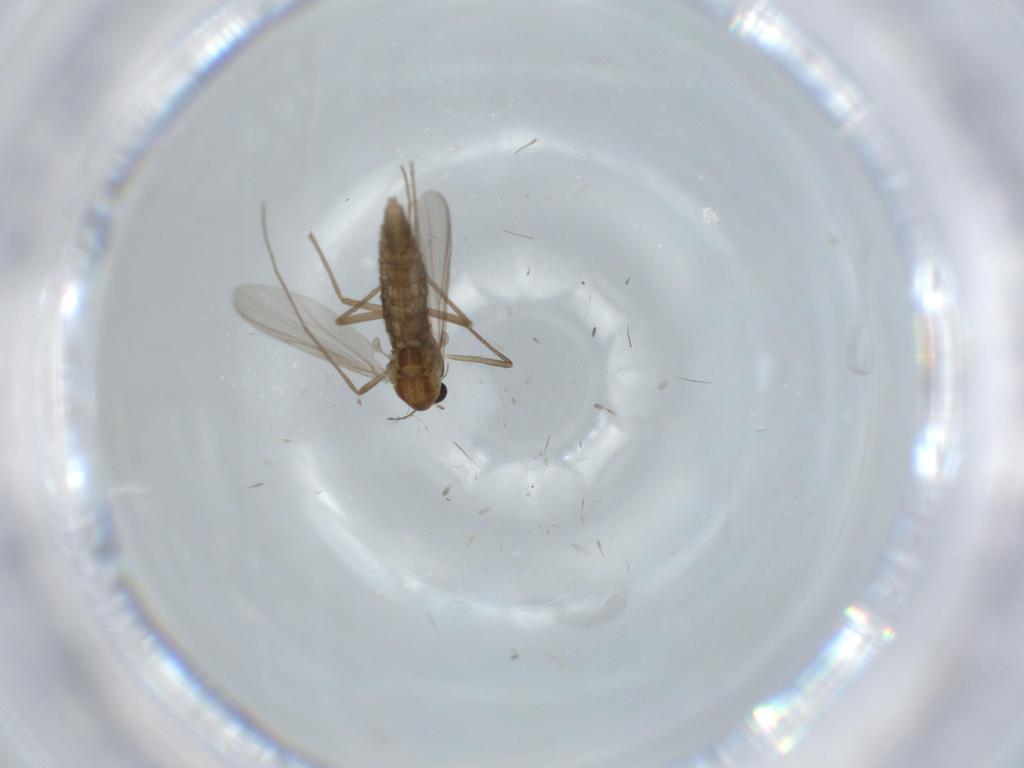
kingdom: Animalia
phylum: Arthropoda
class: Insecta
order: Diptera
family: Chironomidae
